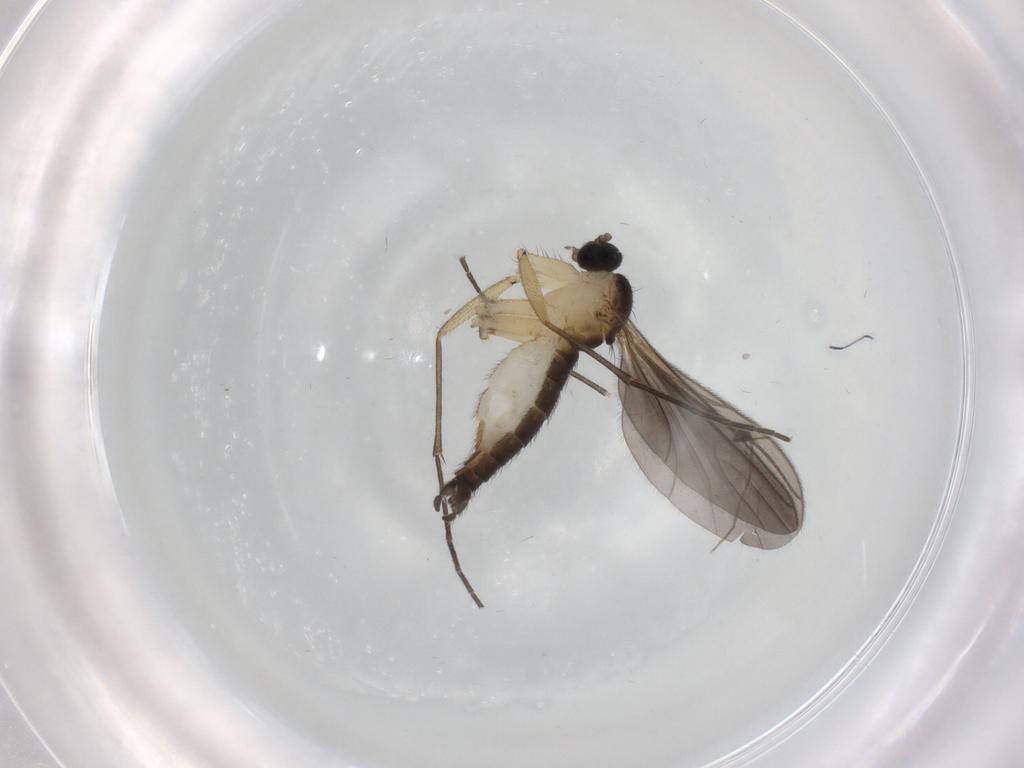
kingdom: Animalia
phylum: Arthropoda
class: Insecta
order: Diptera
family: Sciaridae
